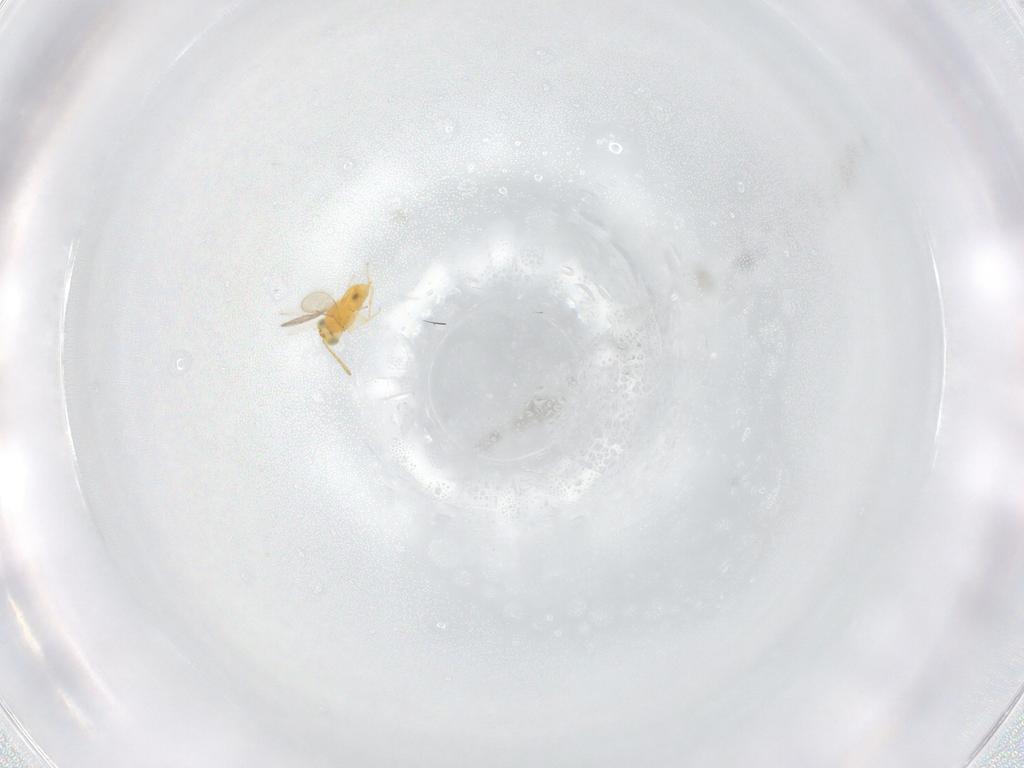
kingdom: Animalia
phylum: Arthropoda
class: Insecta
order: Hymenoptera
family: Aphelinidae
